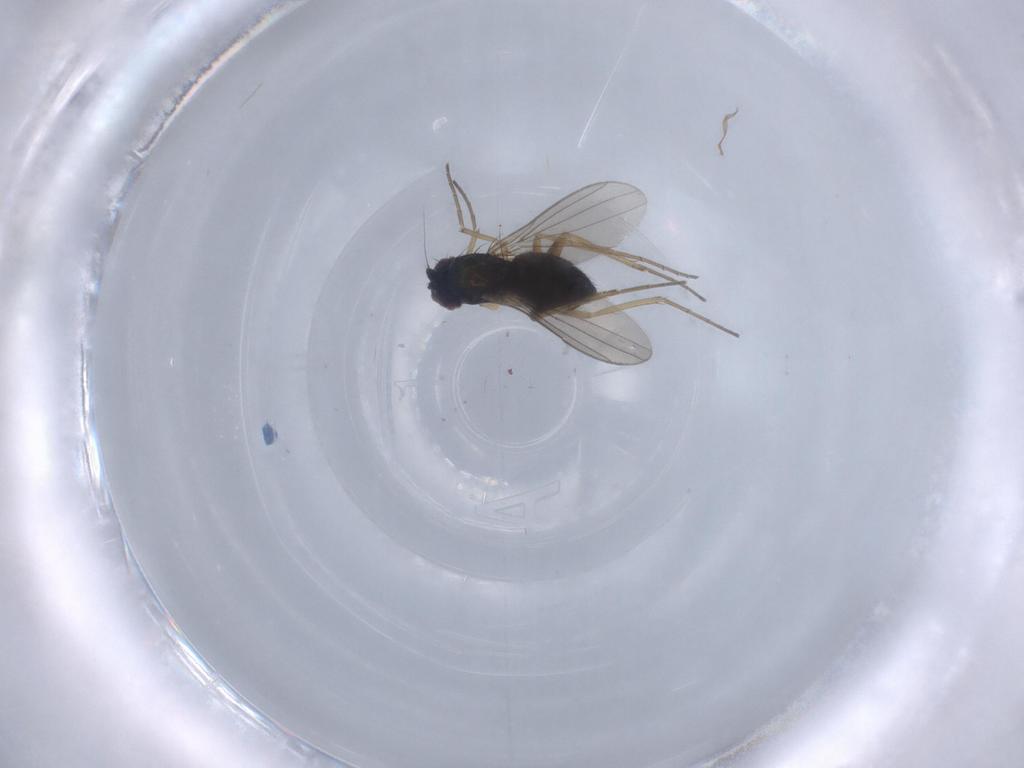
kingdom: Animalia
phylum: Arthropoda
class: Insecta
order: Diptera
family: Dolichopodidae
